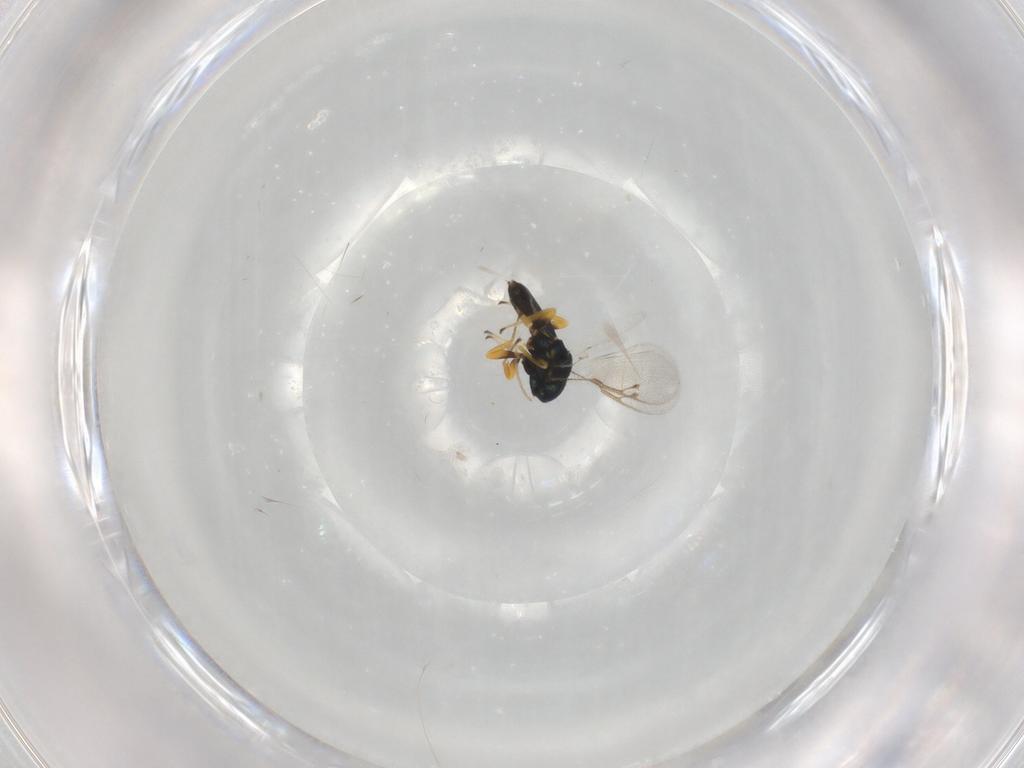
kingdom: Animalia
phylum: Arthropoda
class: Insecta
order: Hymenoptera
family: Pteromalidae
